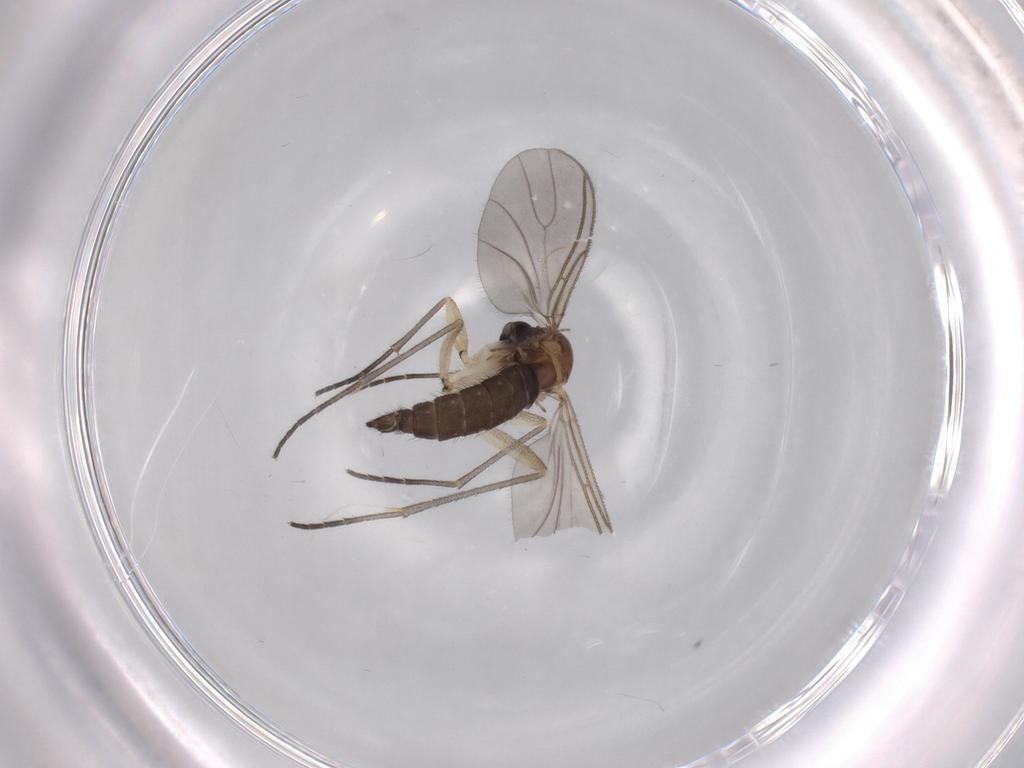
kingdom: Animalia
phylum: Arthropoda
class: Insecta
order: Diptera
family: Sciaridae
